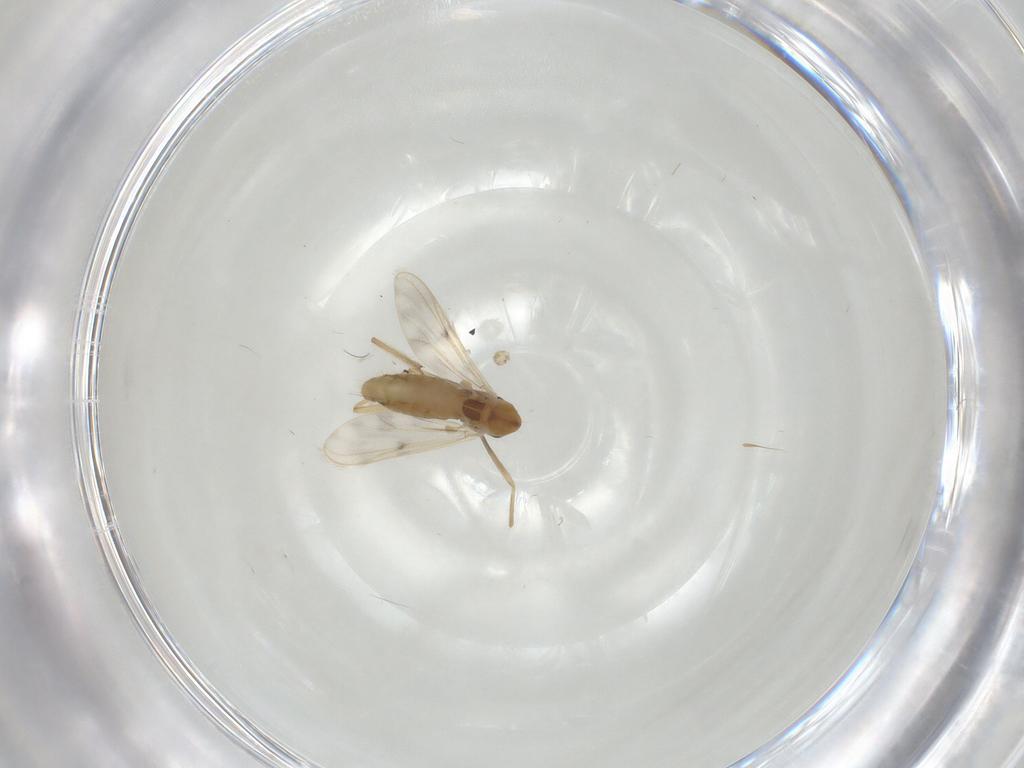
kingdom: Animalia
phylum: Arthropoda
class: Insecta
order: Diptera
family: Chironomidae
